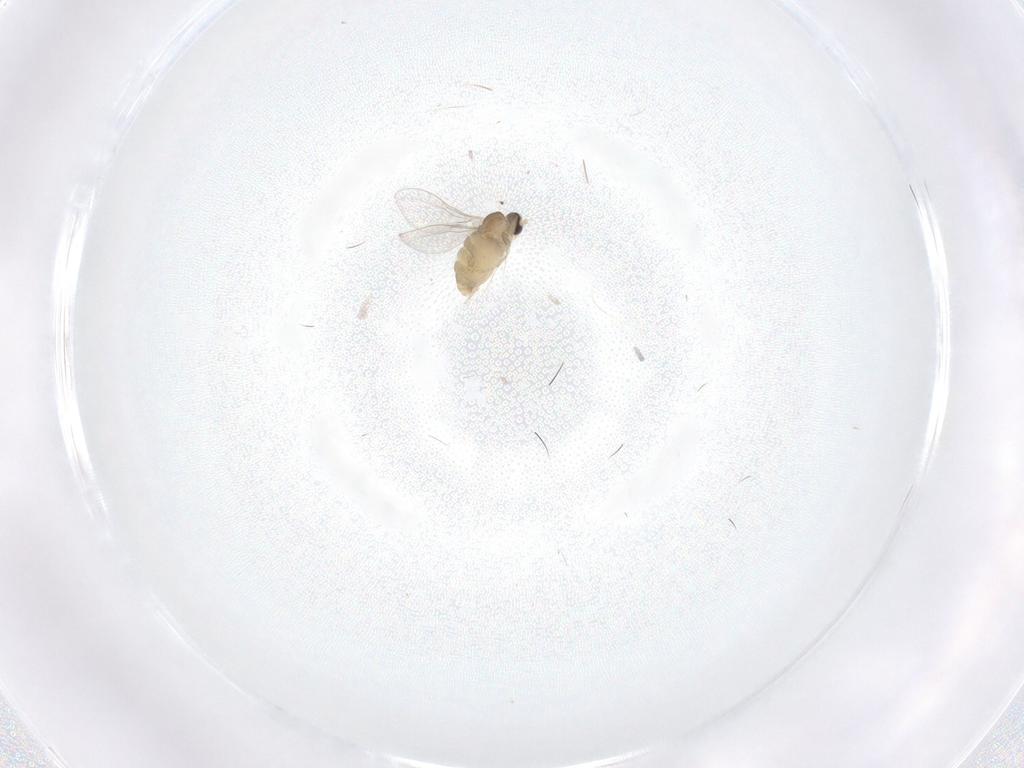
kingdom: Animalia
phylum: Arthropoda
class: Insecta
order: Diptera
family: Cecidomyiidae
